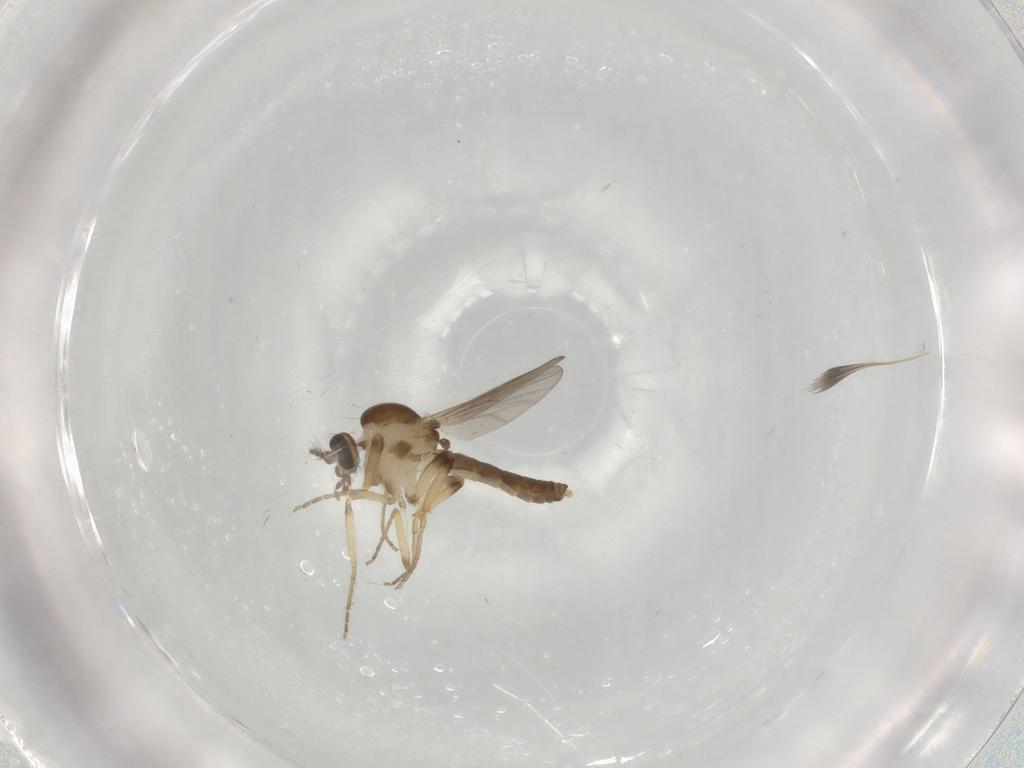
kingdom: Animalia
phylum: Arthropoda
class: Insecta
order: Diptera
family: Ceratopogonidae
